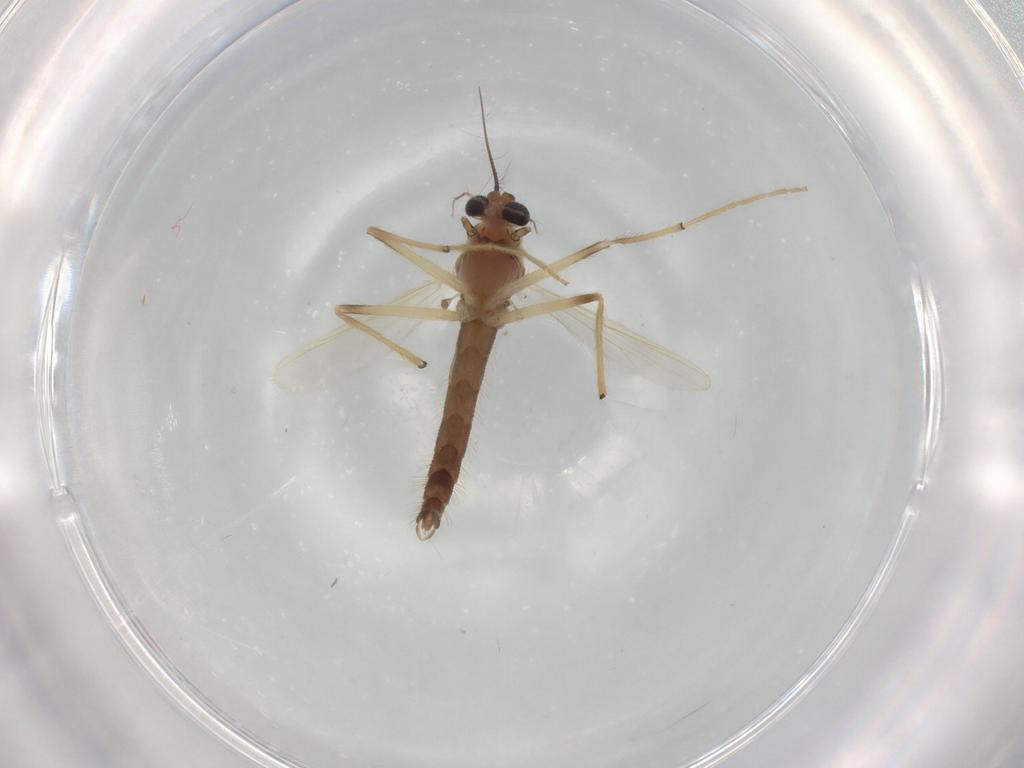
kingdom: Animalia
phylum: Arthropoda
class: Insecta
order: Diptera
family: Chironomidae
